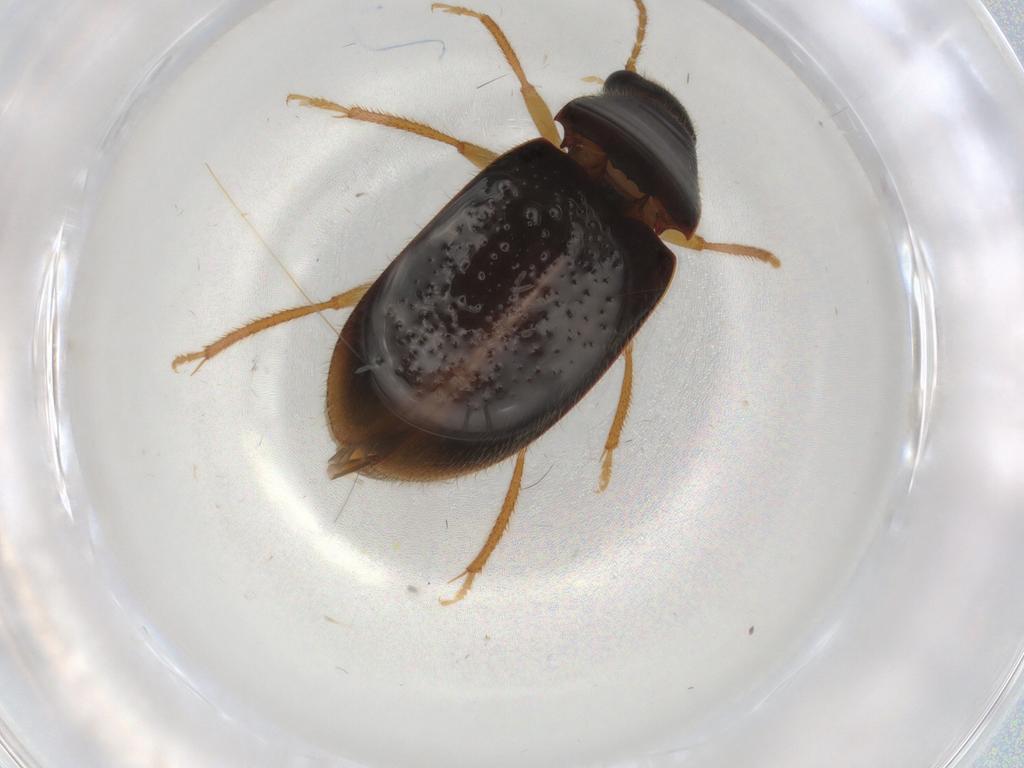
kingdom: Animalia
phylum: Arthropoda
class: Insecta
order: Coleoptera
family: Ptilodactylidae
